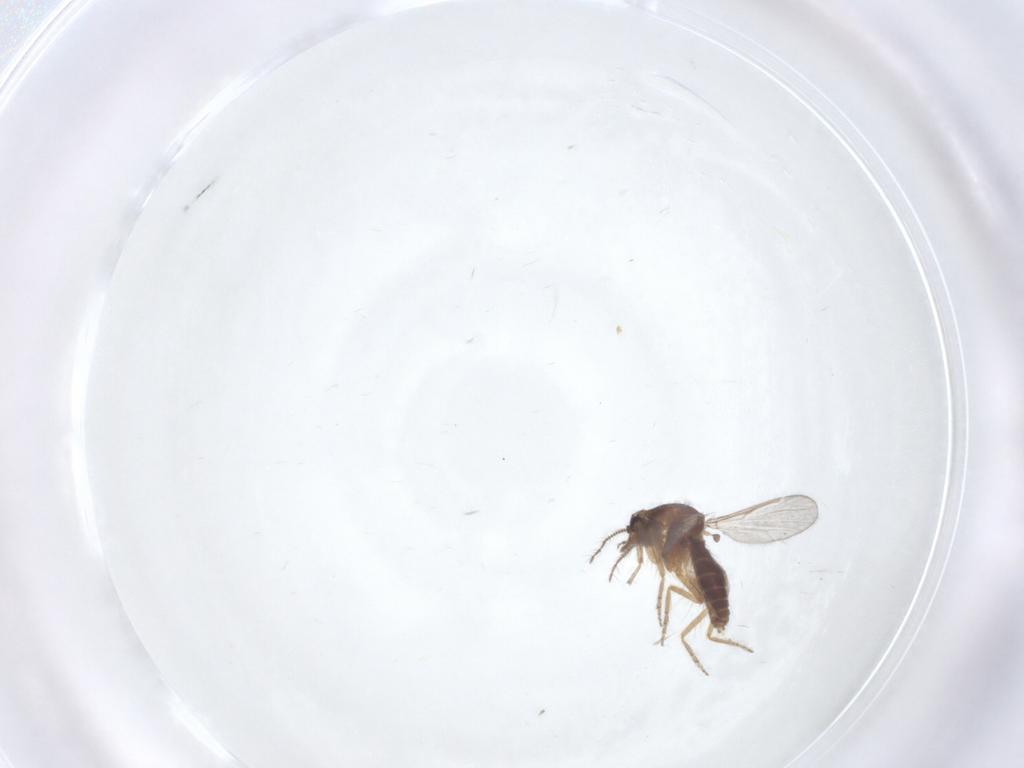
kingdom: Animalia
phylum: Arthropoda
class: Insecta
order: Diptera
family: Ceratopogonidae
